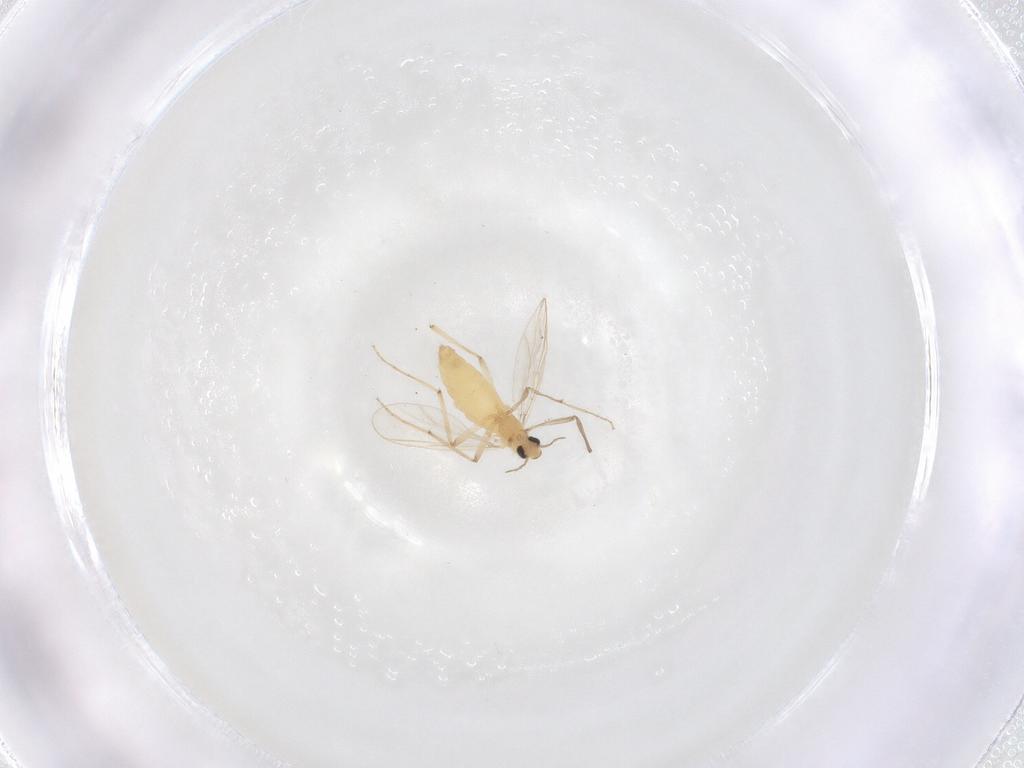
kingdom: Animalia
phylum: Arthropoda
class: Insecta
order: Diptera
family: Chironomidae
